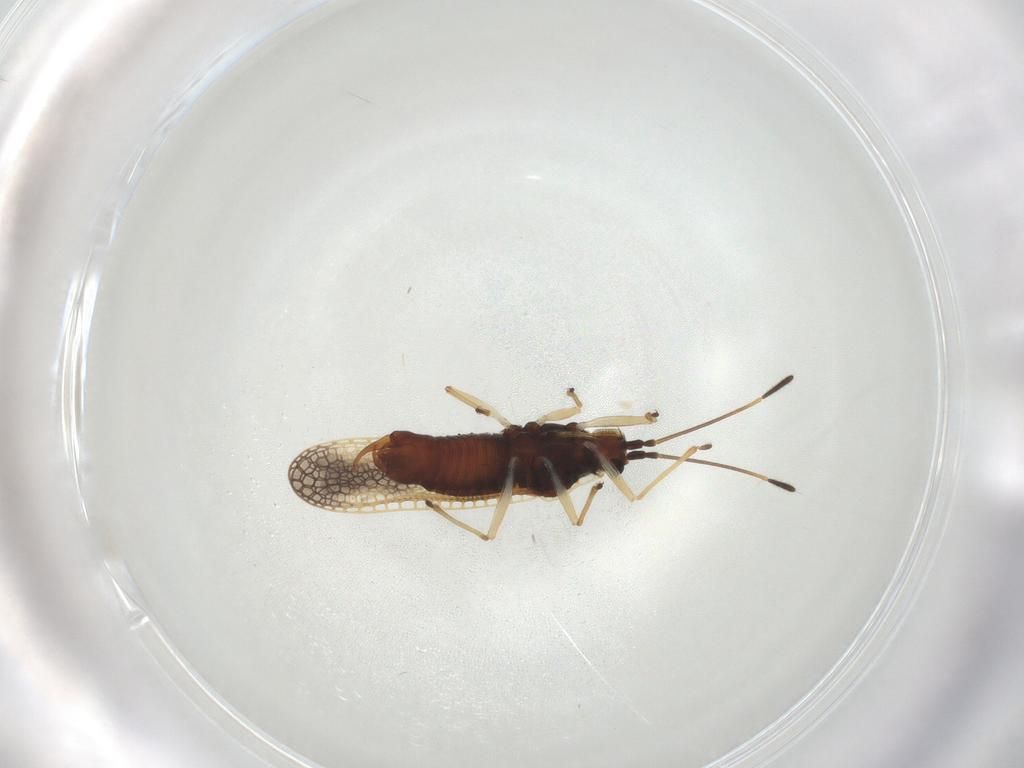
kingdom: Animalia
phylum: Arthropoda
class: Insecta
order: Hemiptera
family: Tingidae
